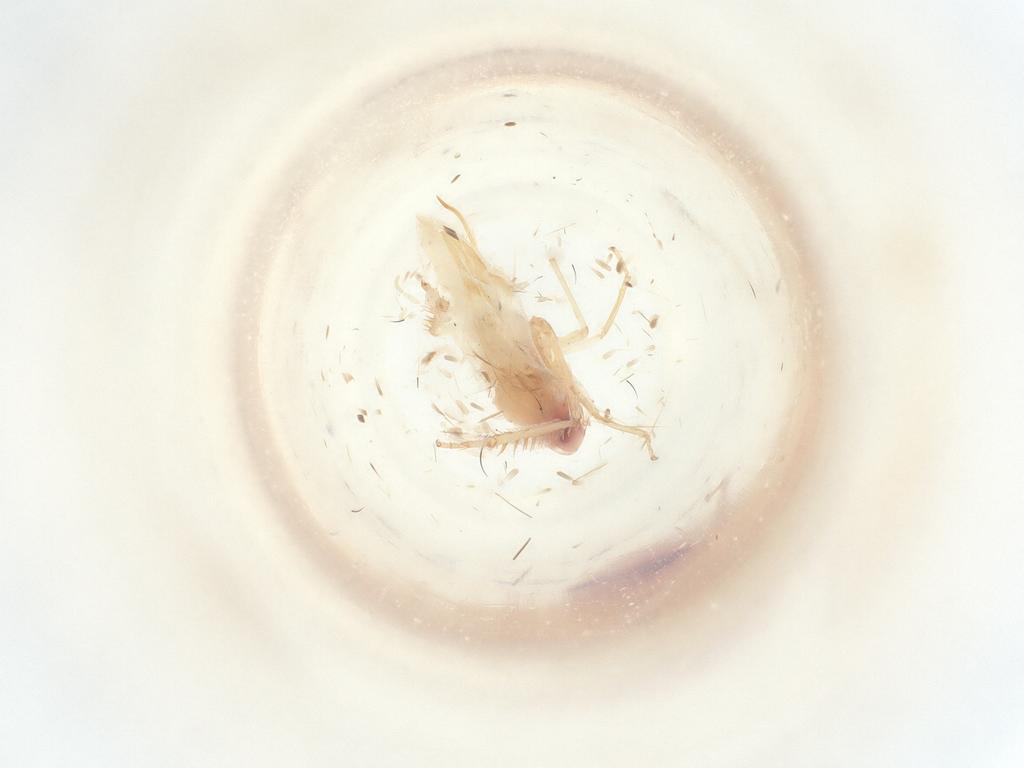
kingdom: Animalia
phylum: Arthropoda
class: Insecta
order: Hemiptera
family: Cicadellidae
